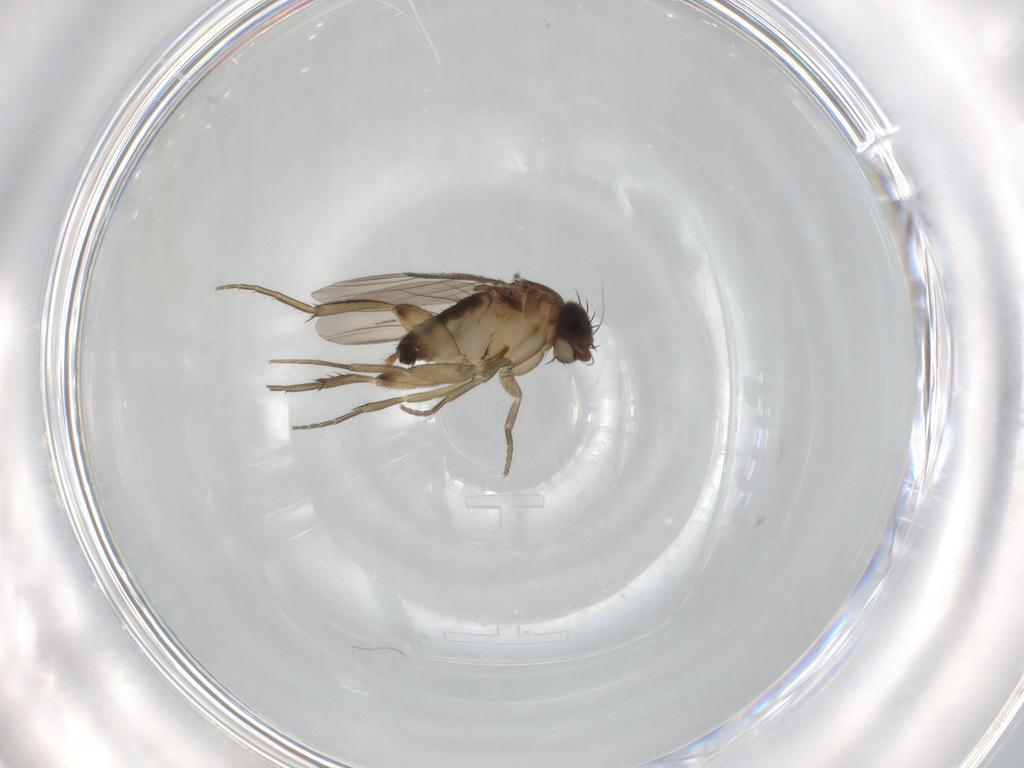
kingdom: Animalia
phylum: Arthropoda
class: Insecta
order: Diptera
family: Phoridae
